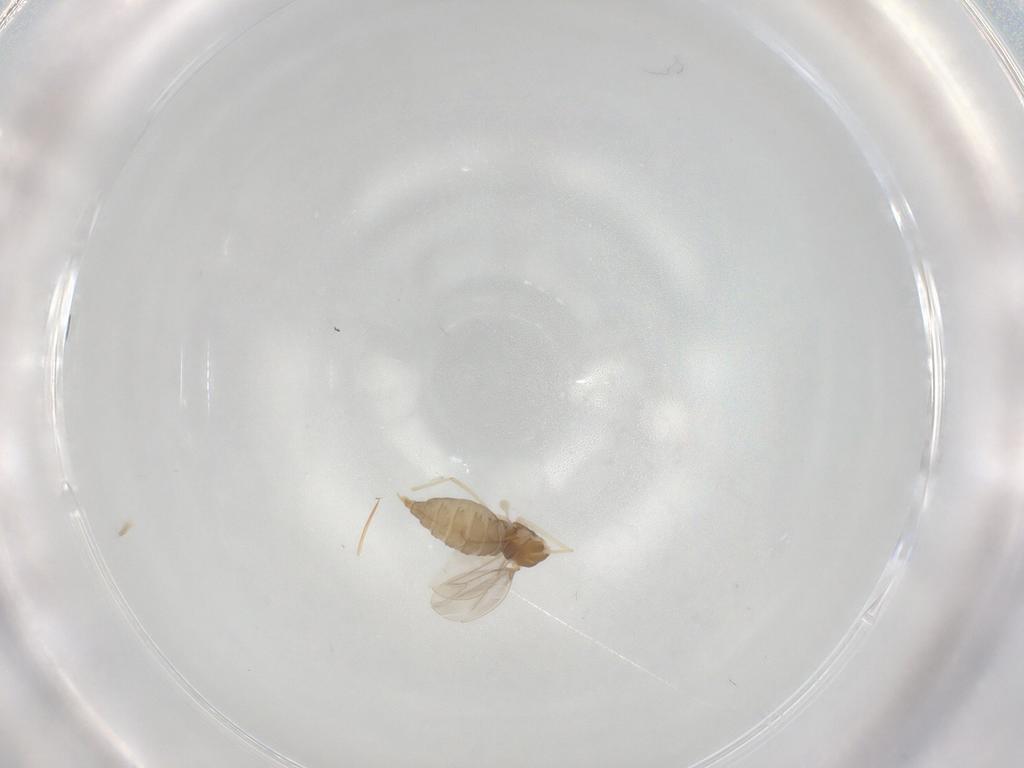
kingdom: Animalia
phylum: Arthropoda
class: Insecta
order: Diptera
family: Cecidomyiidae
